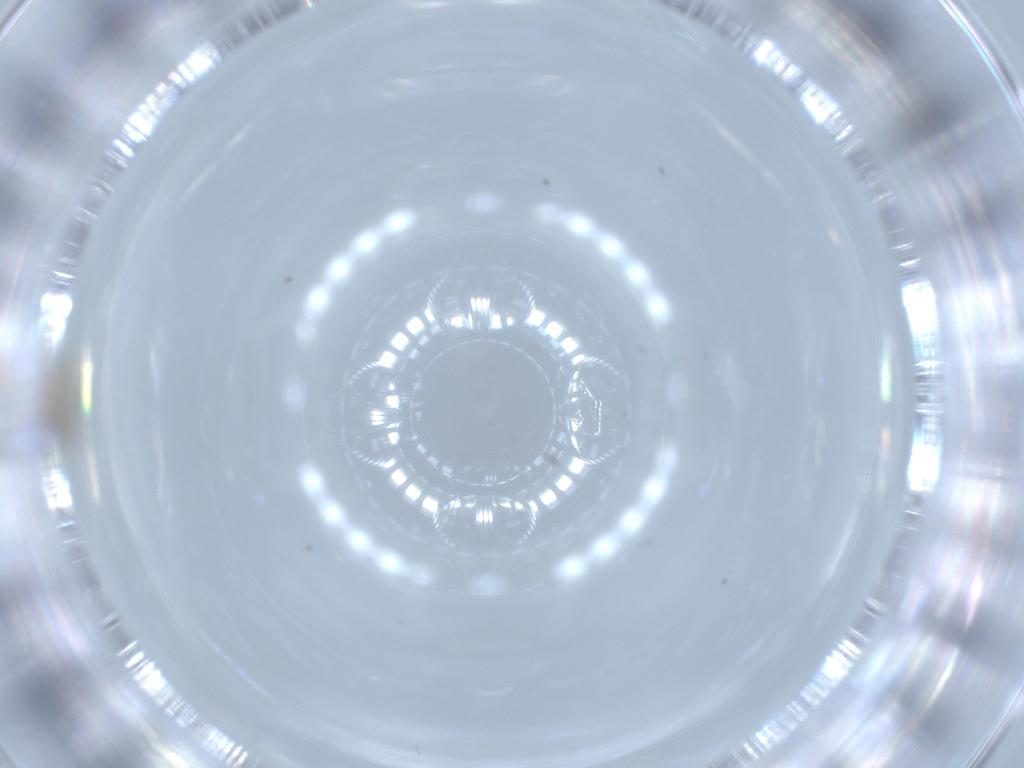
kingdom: Animalia
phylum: Arthropoda
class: Insecta
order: Diptera
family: Cecidomyiidae
